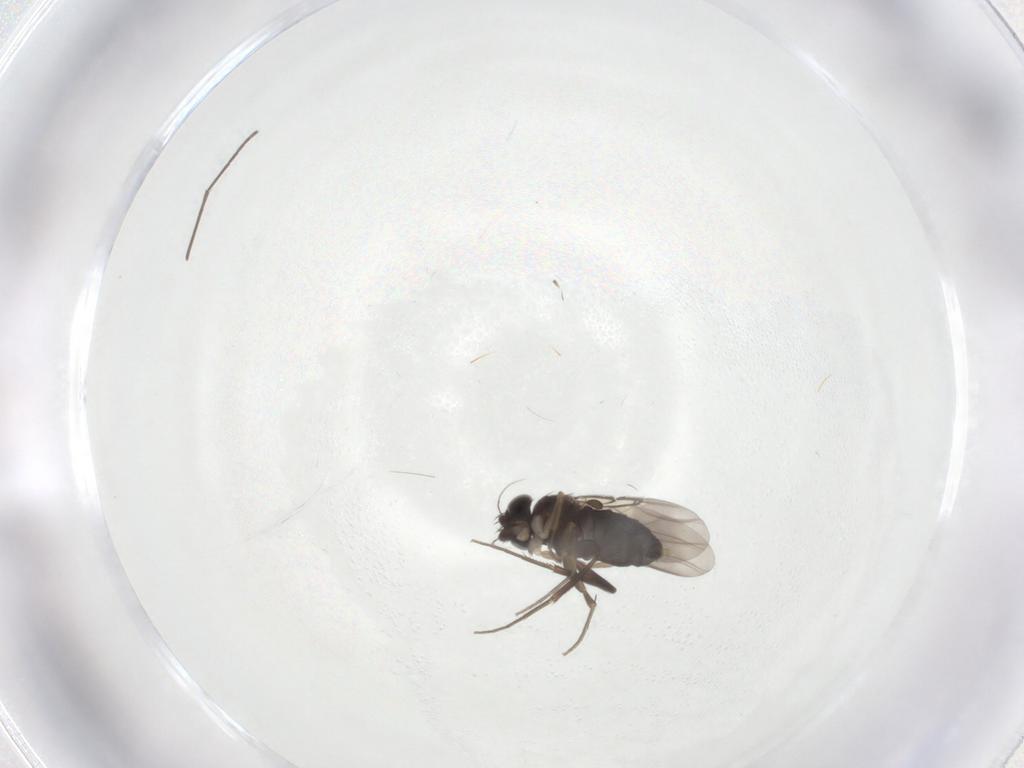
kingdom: Animalia
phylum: Arthropoda
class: Insecta
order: Diptera
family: Phoridae
